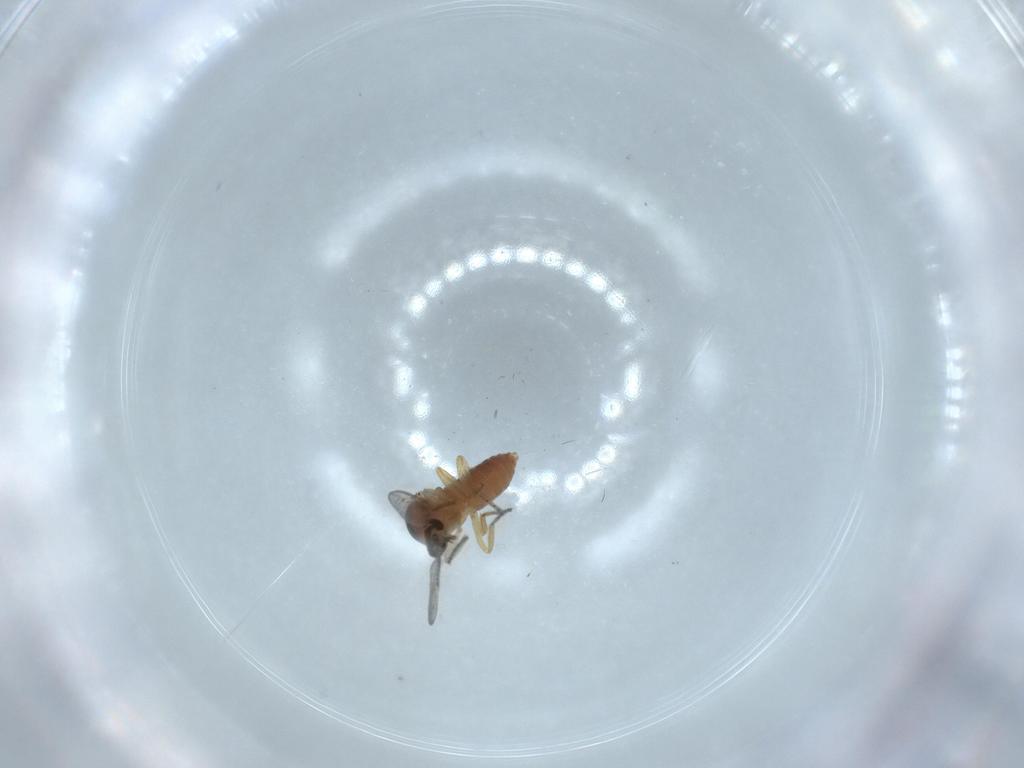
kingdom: Animalia
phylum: Arthropoda
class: Insecta
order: Diptera
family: Ceratopogonidae
